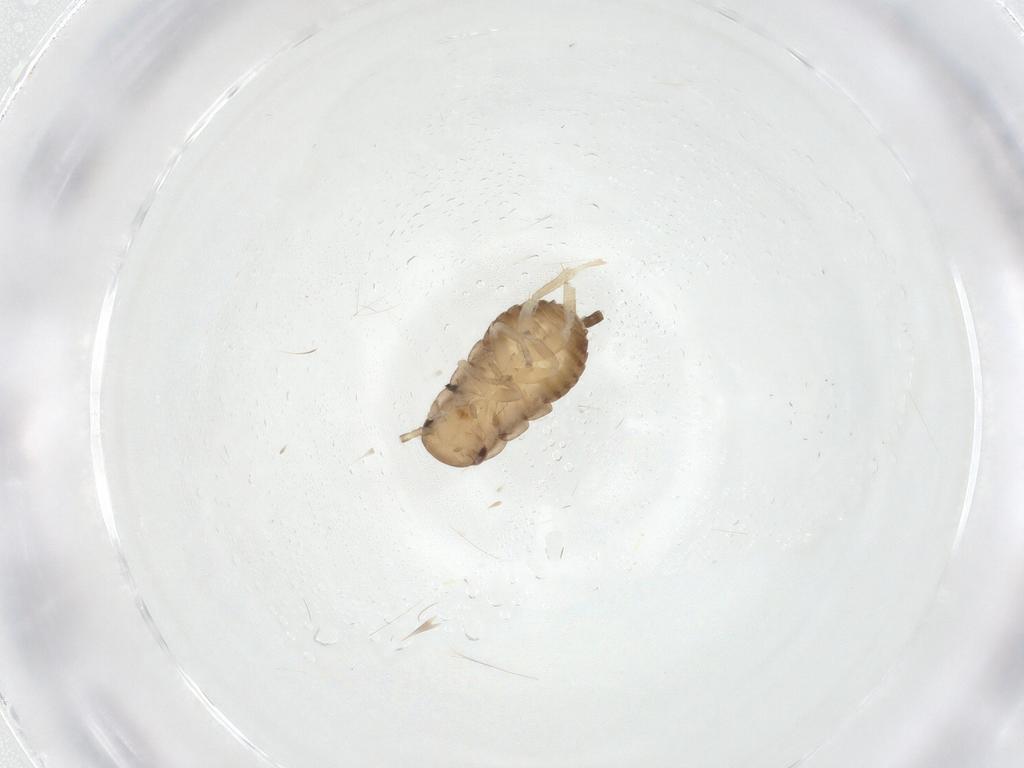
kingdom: Animalia
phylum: Arthropoda
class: Insecta
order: Blattodea
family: Ectobiidae
